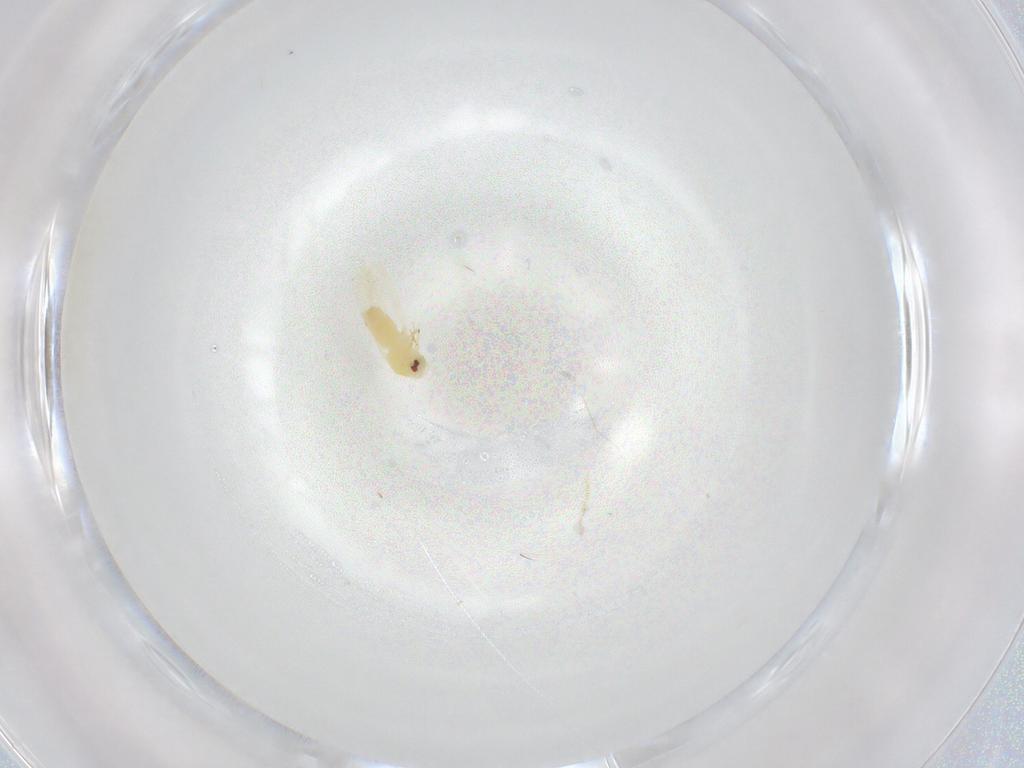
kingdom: Animalia
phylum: Arthropoda
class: Insecta
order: Hemiptera
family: Aleyrodidae
